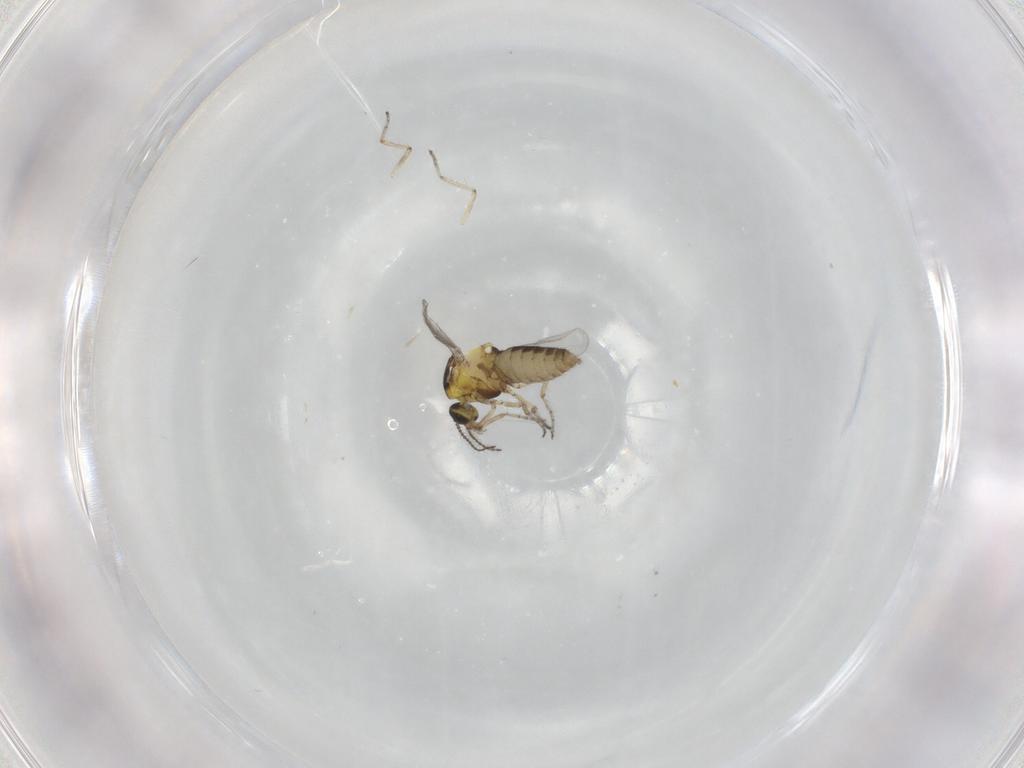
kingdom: Animalia
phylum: Arthropoda
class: Insecta
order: Diptera
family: Ceratopogonidae
